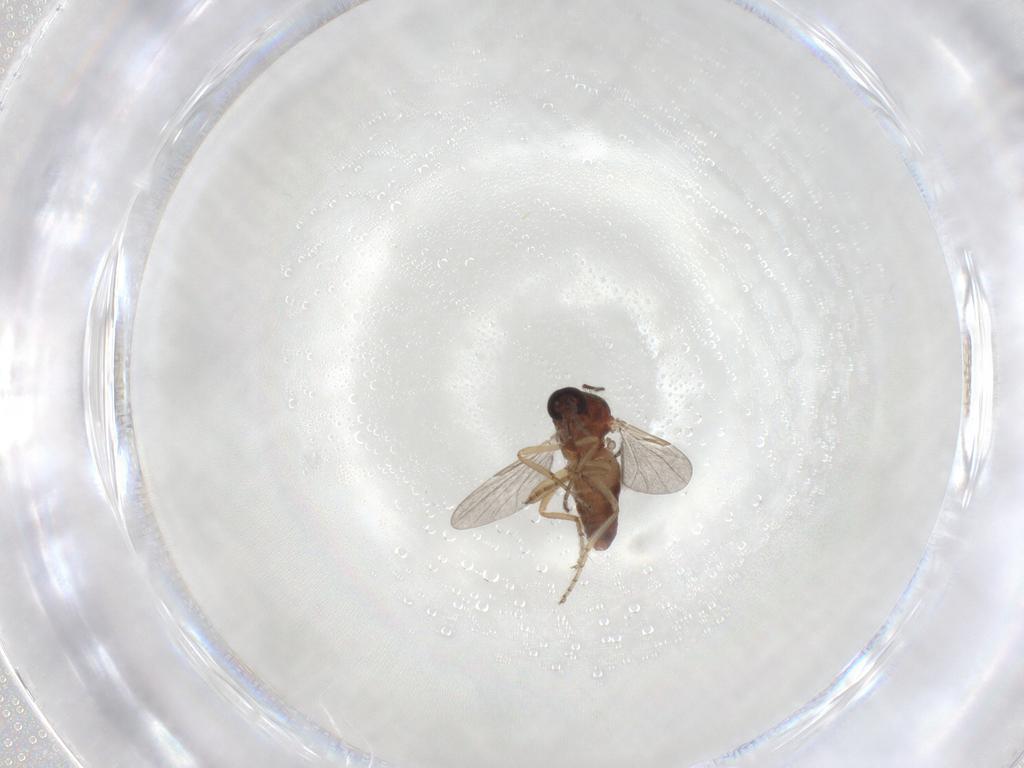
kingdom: Animalia
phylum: Arthropoda
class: Insecta
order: Diptera
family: Ceratopogonidae
